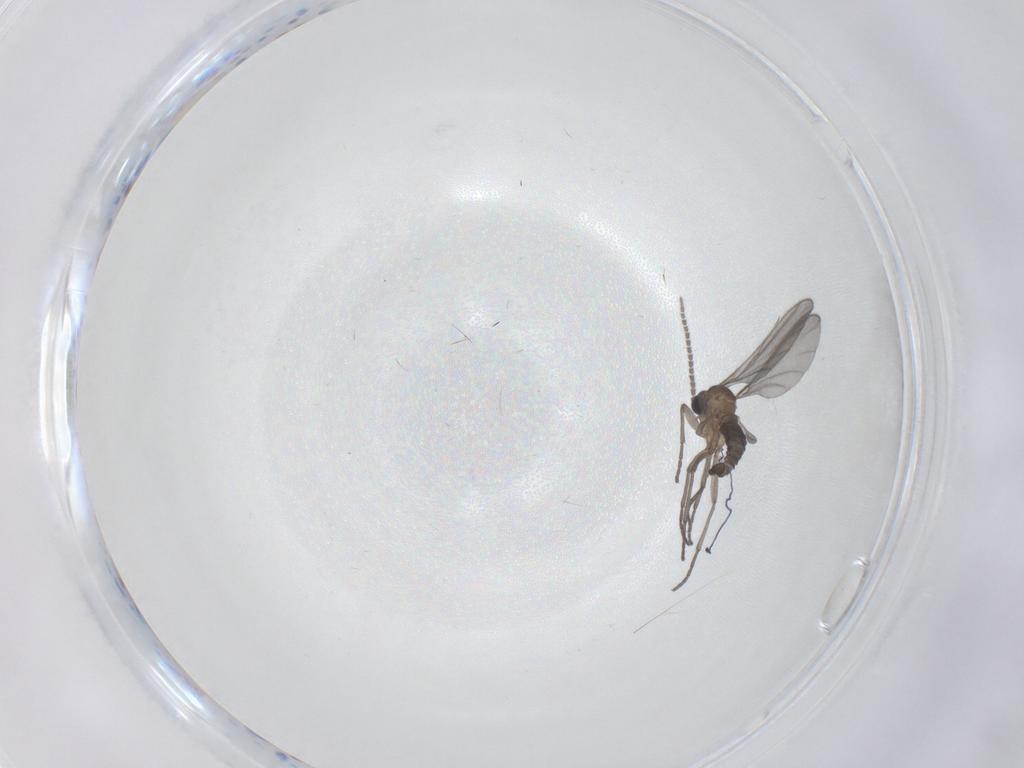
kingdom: Animalia
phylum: Arthropoda
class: Insecta
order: Diptera
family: Sciaridae
